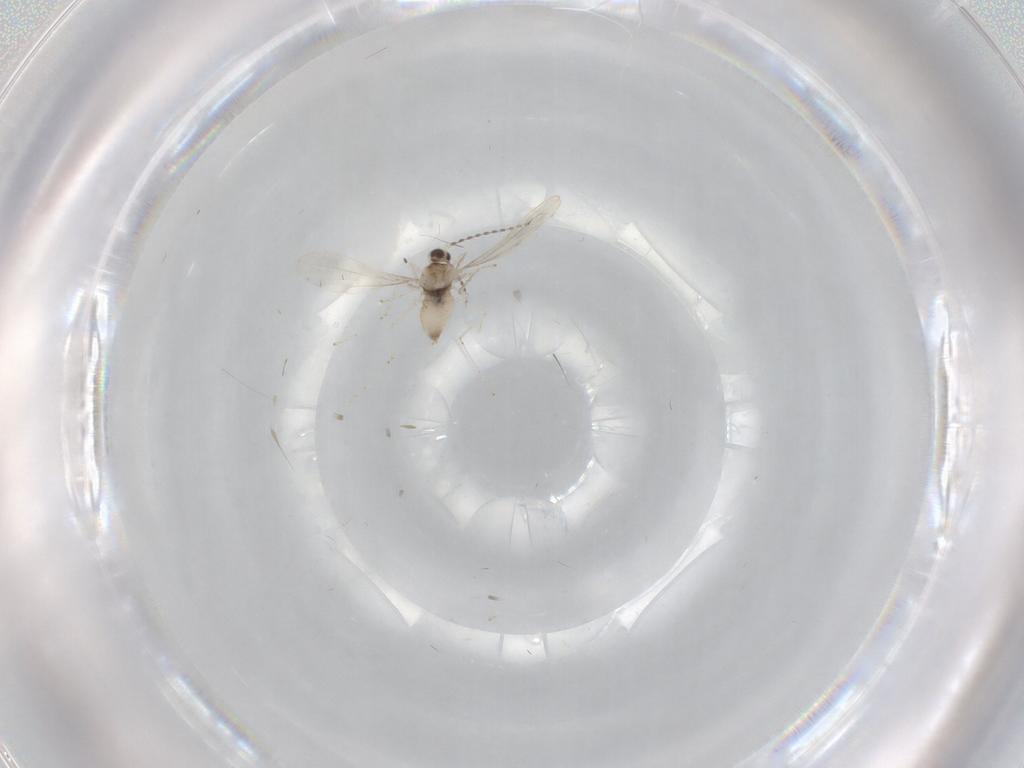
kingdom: Animalia
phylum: Arthropoda
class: Insecta
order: Diptera
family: Cecidomyiidae
